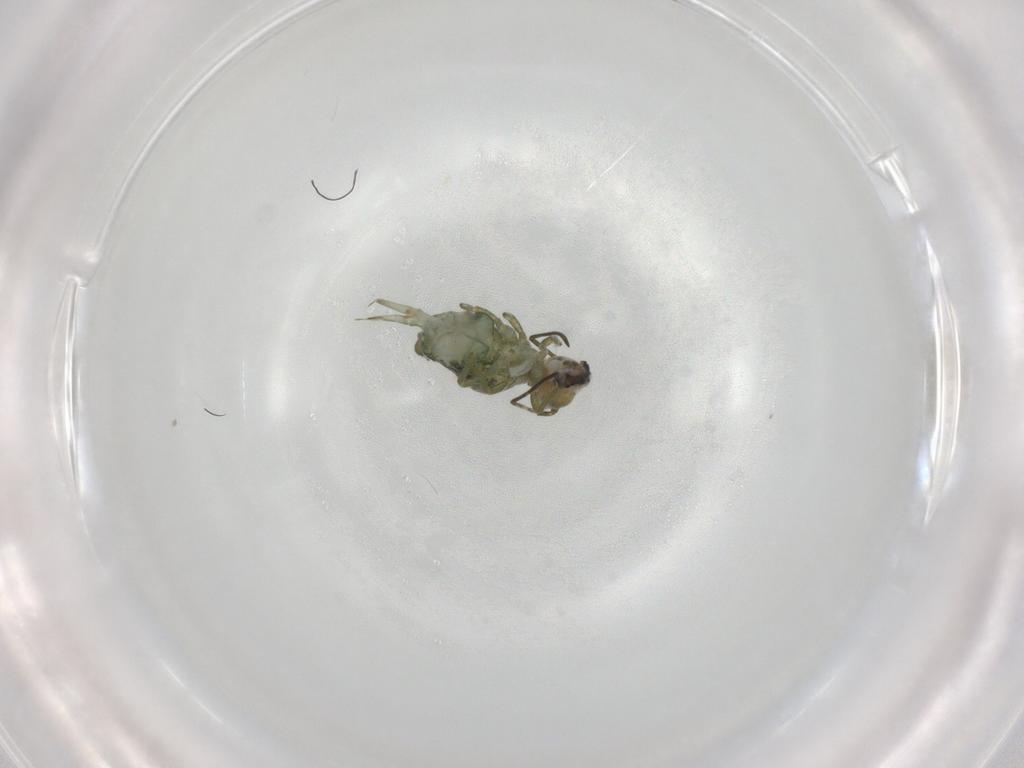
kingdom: Animalia
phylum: Arthropoda
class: Collembola
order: Symphypleona
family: Sminthuridae
